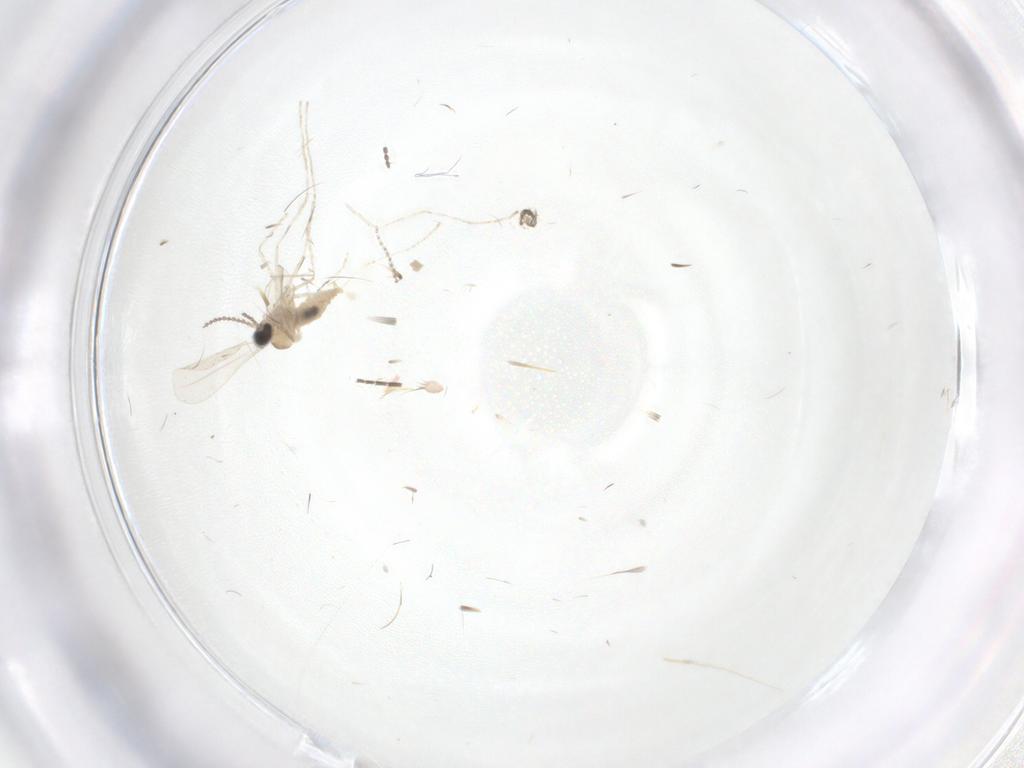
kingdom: Animalia
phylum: Arthropoda
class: Insecta
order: Diptera
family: Cecidomyiidae
